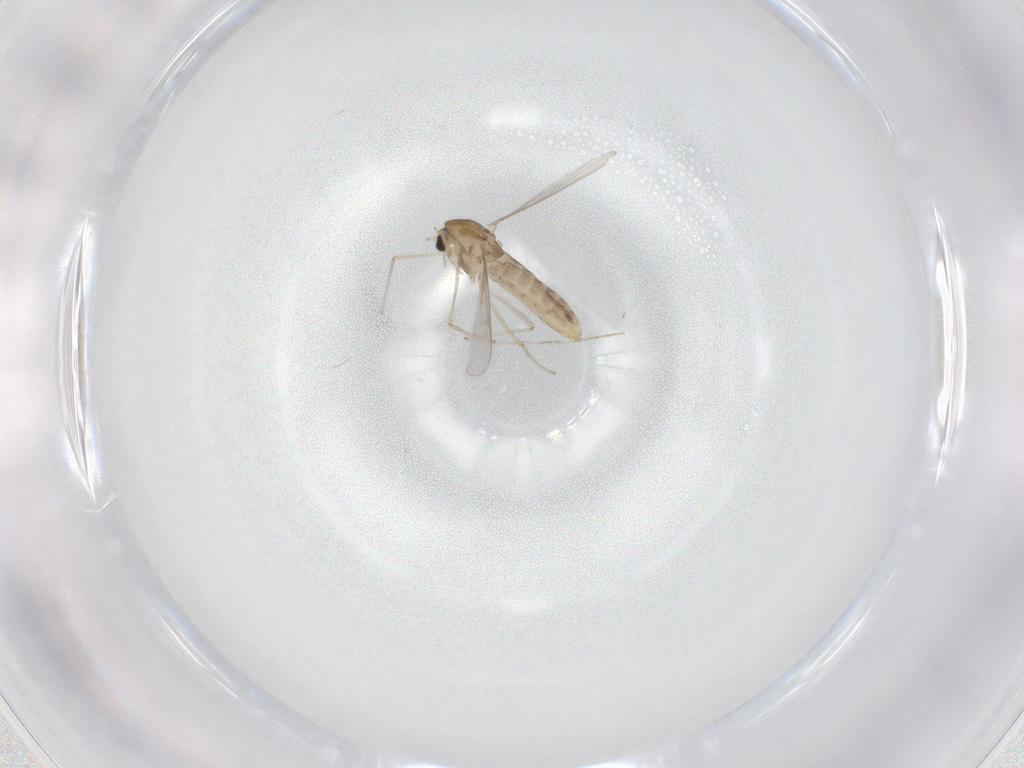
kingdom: Animalia
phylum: Arthropoda
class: Insecta
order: Diptera
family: Chironomidae
